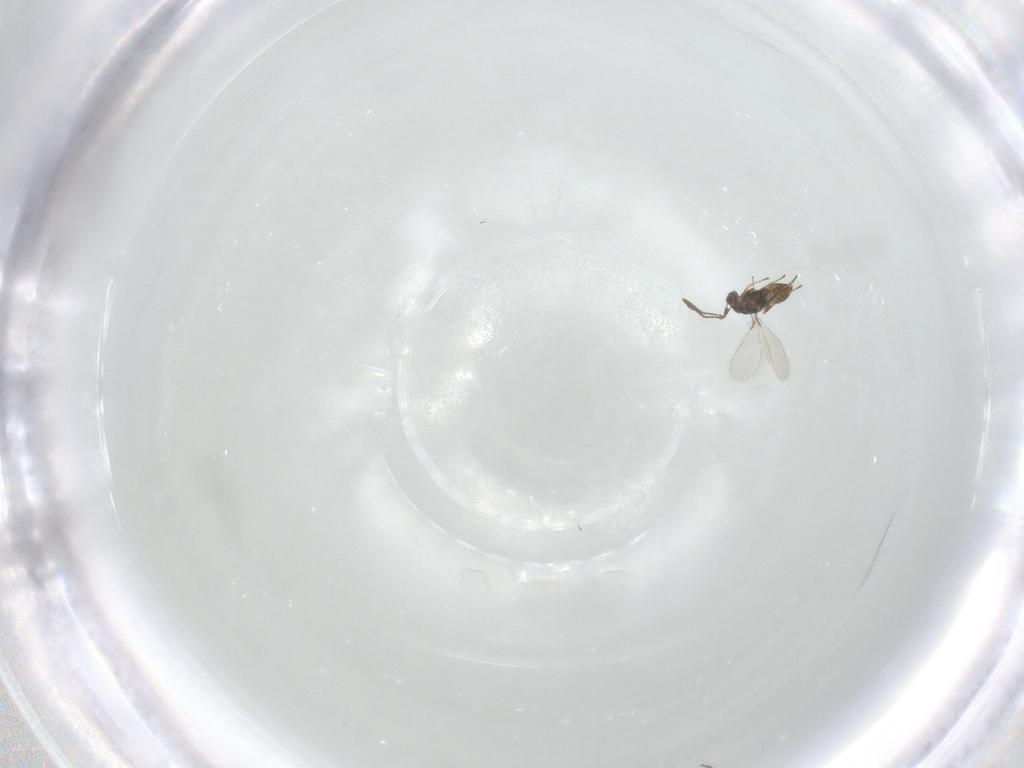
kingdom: Animalia
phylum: Arthropoda
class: Insecta
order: Hymenoptera
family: Mymaridae
